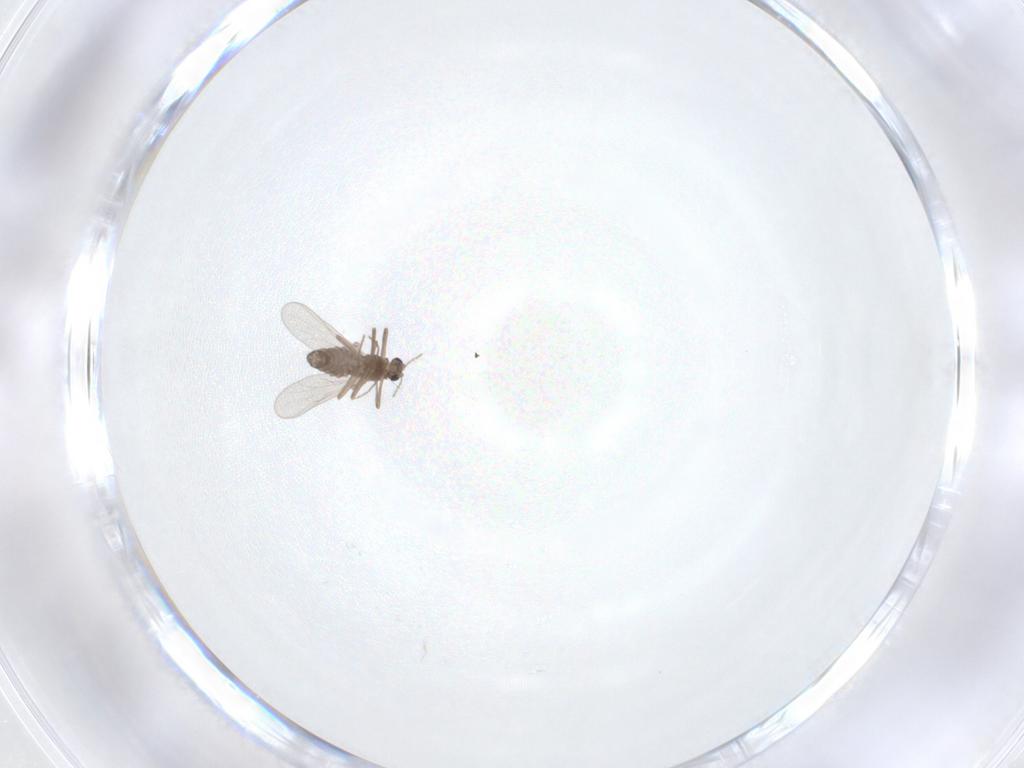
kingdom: Animalia
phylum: Arthropoda
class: Insecta
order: Diptera
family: Chironomidae
